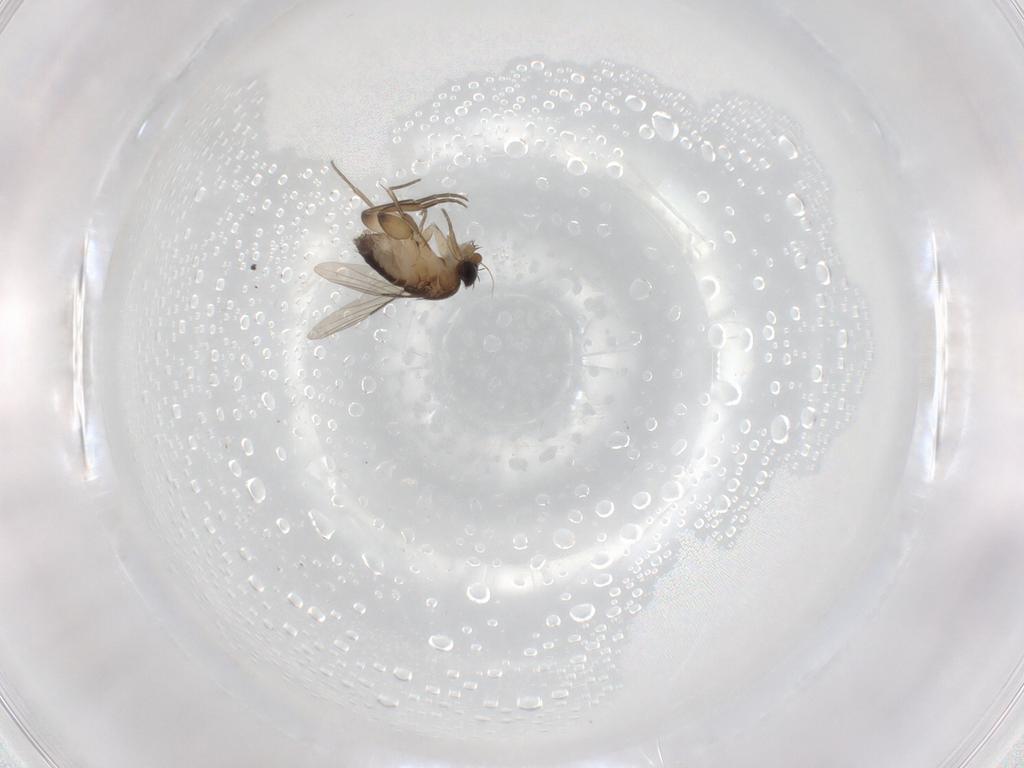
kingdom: Animalia
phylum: Arthropoda
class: Insecta
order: Diptera
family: Phoridae
